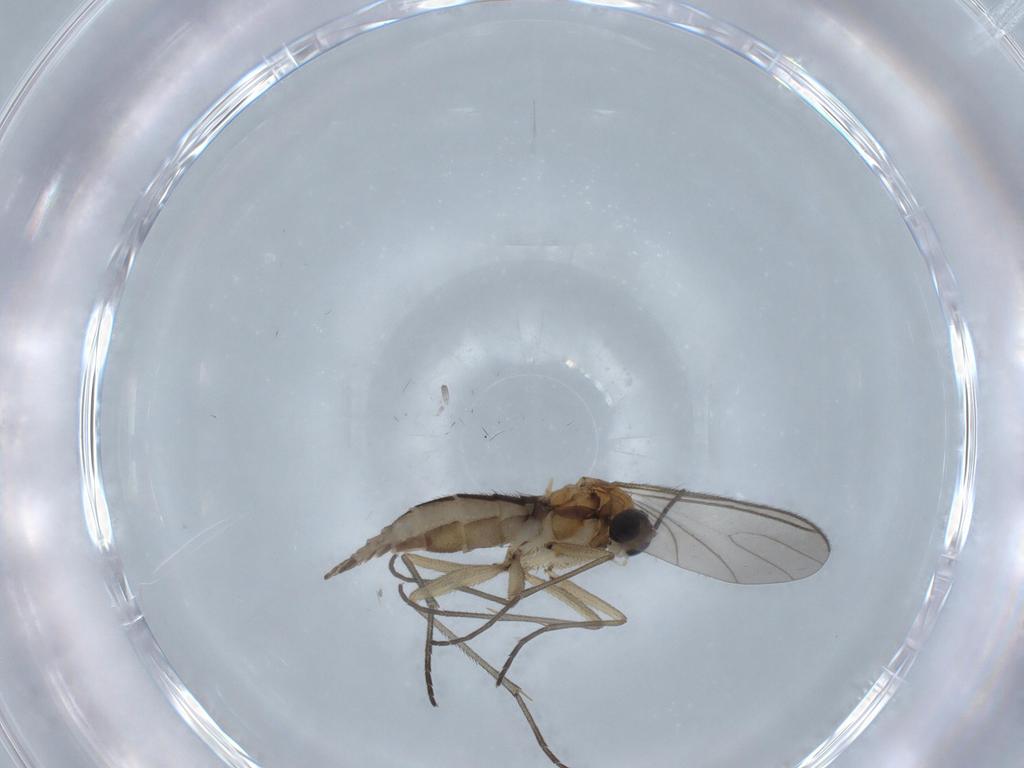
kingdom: Animalia
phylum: Arthropoda
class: Insecta
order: Diptera
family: Sciaridae
